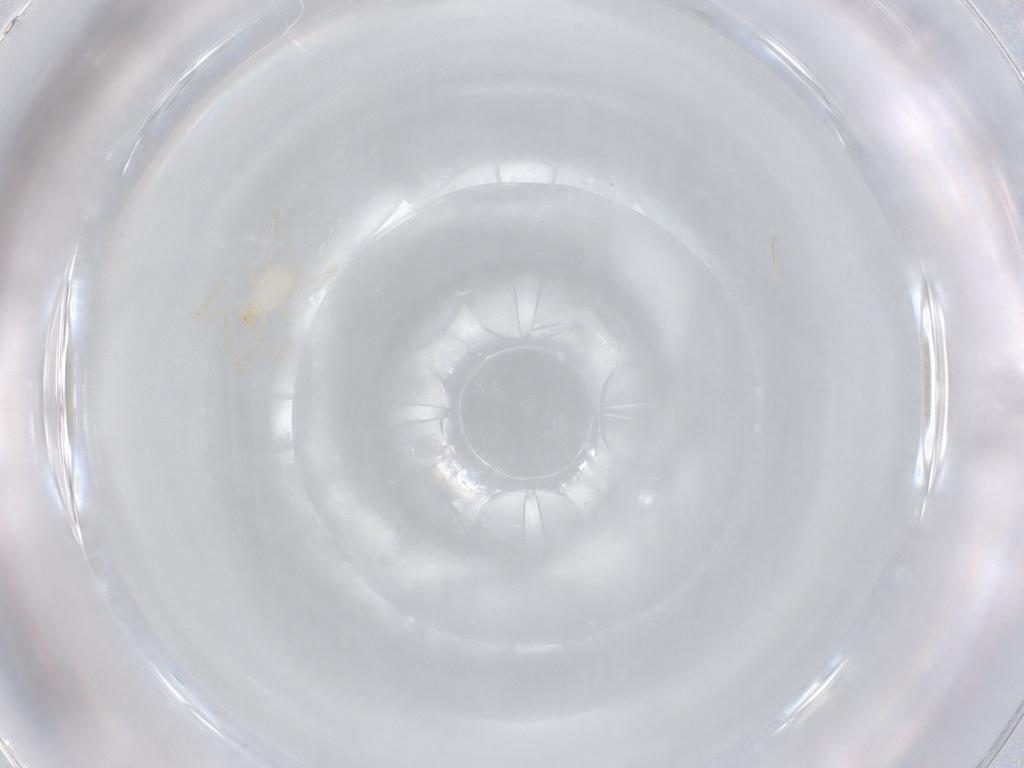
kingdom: Animalia
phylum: Arthropoda
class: Arachnida
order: Trombidiformes
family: Erythraeidae
